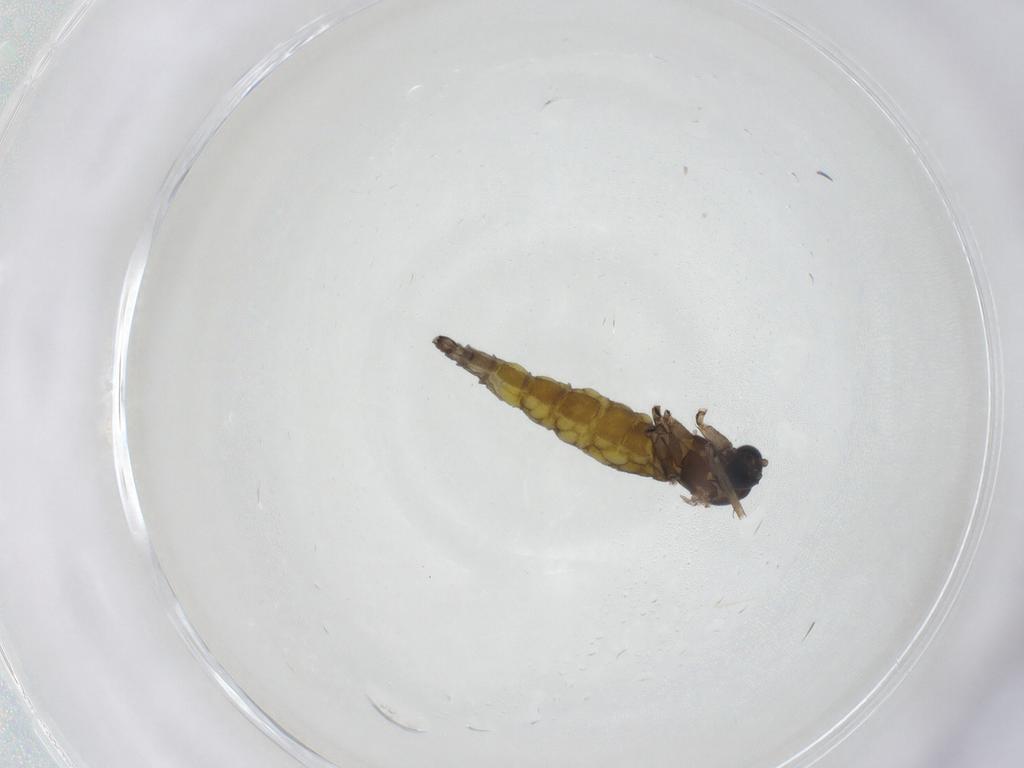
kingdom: Animalia
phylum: Arthropoda
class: Insecta
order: Diptera
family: Sciaridae
